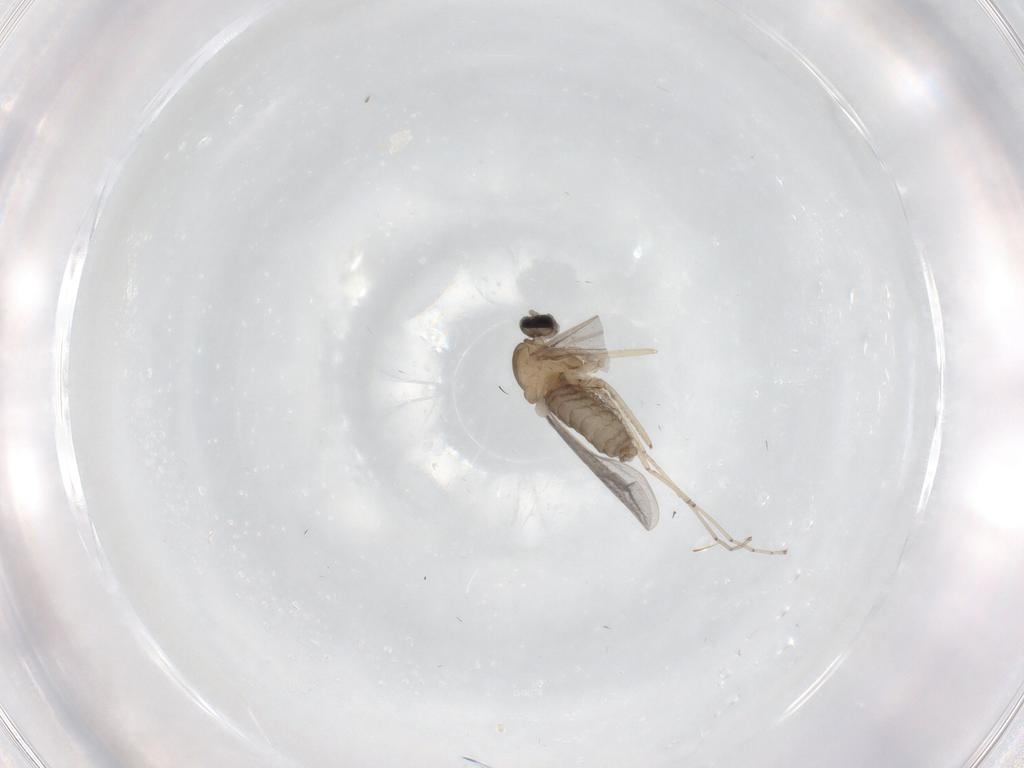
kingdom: Animalia
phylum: Arthropoda
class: Insecta
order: Diptera
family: Cecidomyiidae
